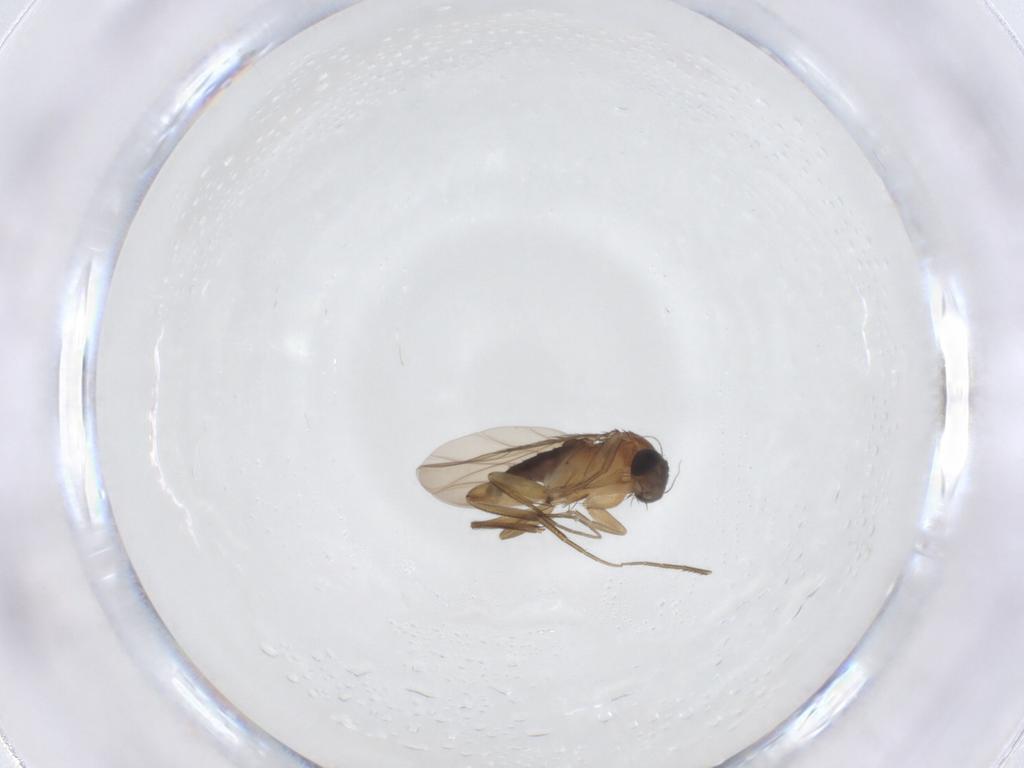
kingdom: Animalia
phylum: Arthropoda
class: Insecta
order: Diptera
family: Phoridae
